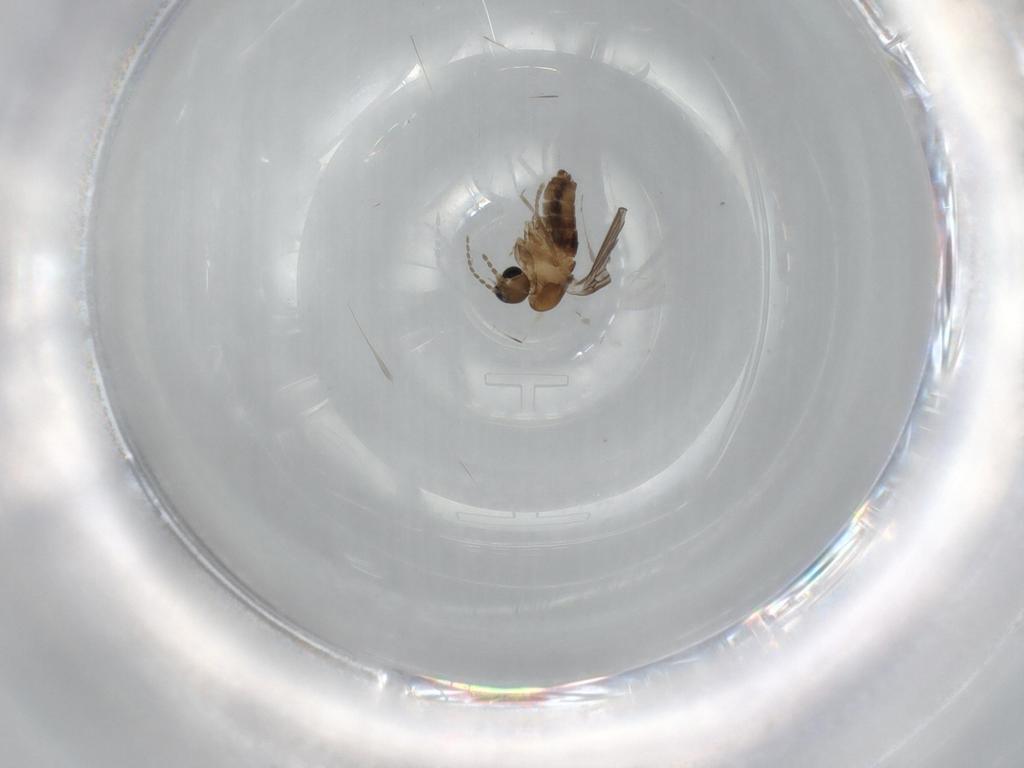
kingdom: Animalia
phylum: Arthropoda
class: Insecta
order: Diptera
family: Psychodidae
